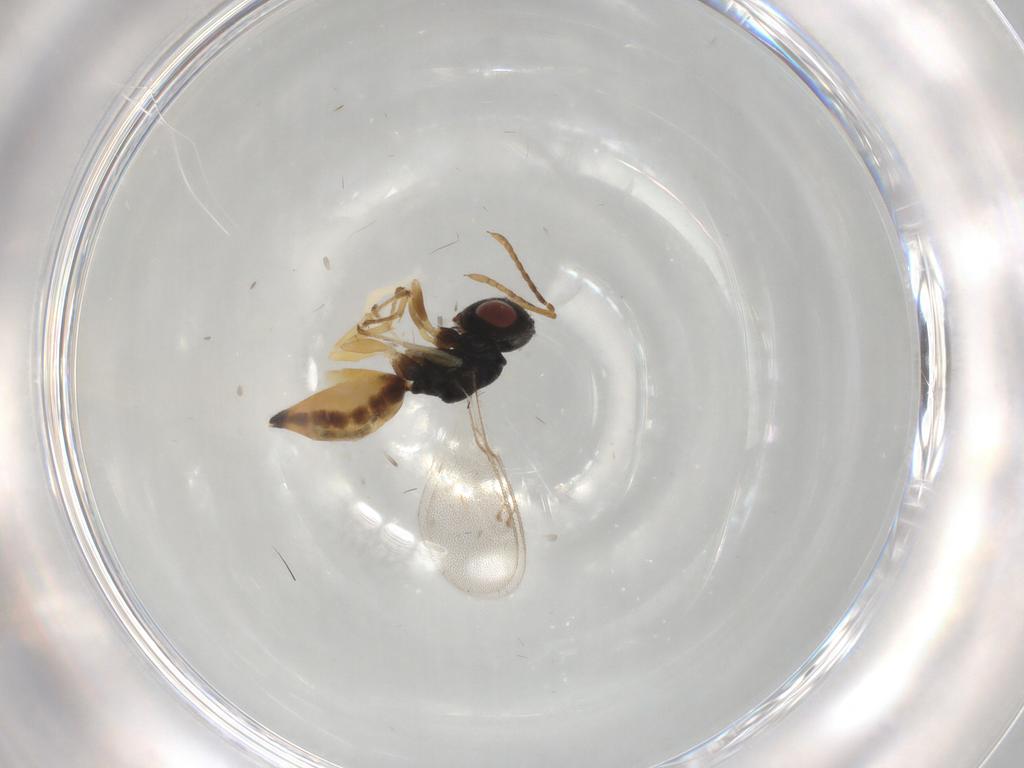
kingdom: Animalia
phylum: Arthropoda
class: Insecta
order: Hymenoptera
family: Pteromalidae
